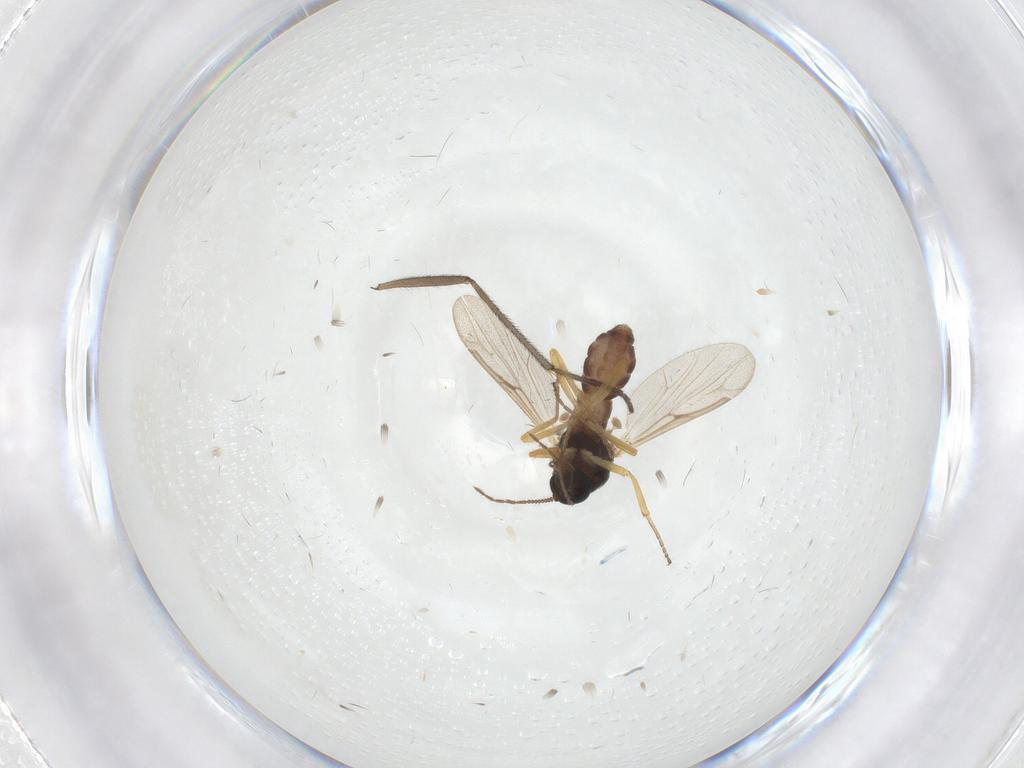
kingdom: Animalia
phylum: Arthropoda
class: Insecta
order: Diptera
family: Ceratopogonidae
